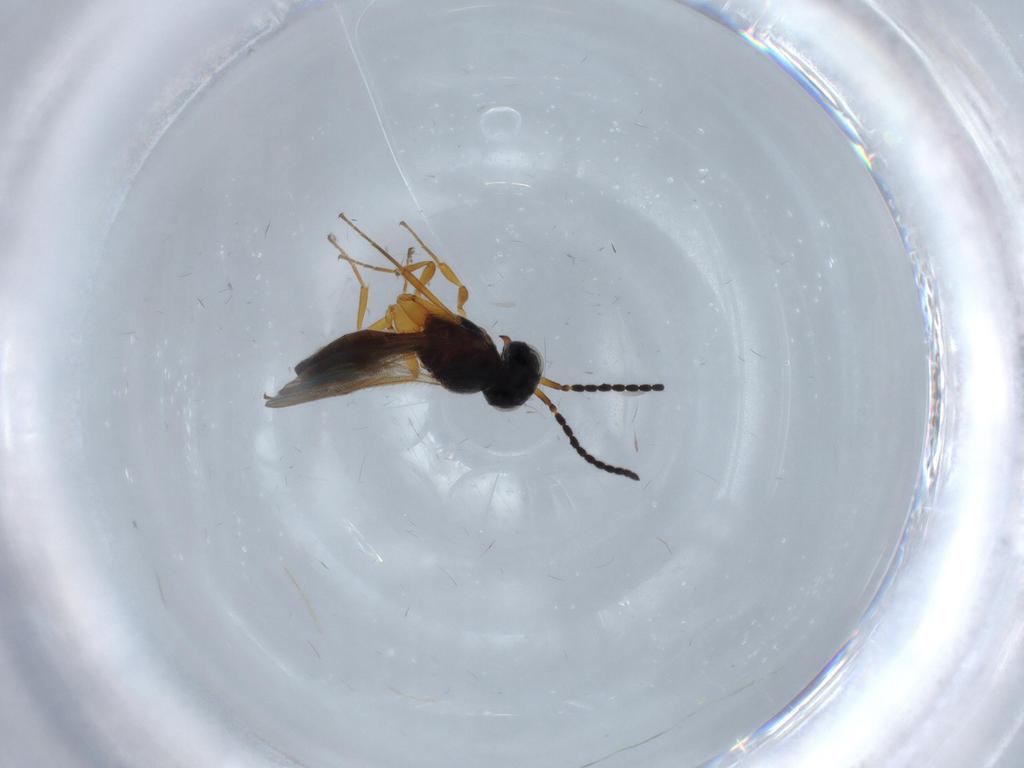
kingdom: Animalia
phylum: Arthropoda
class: Insecta
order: Hymenoptera
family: Scelionidae
